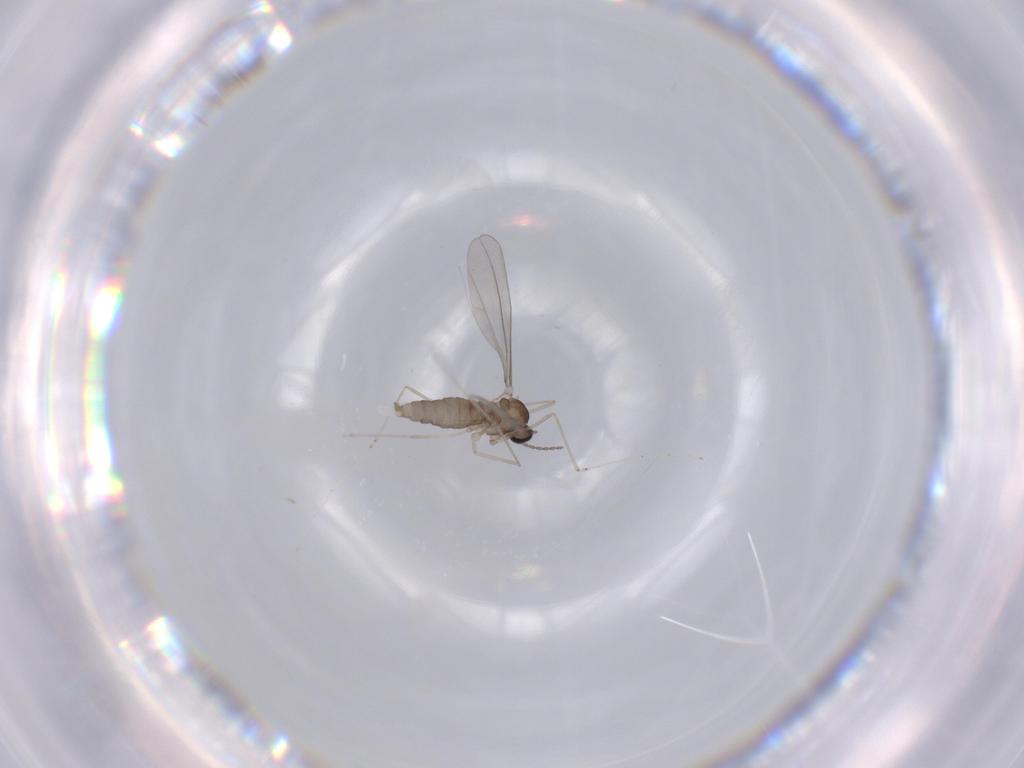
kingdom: Animalia
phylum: Arthropoda
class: Insecta
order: Diptera
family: Cecidomyiidae
